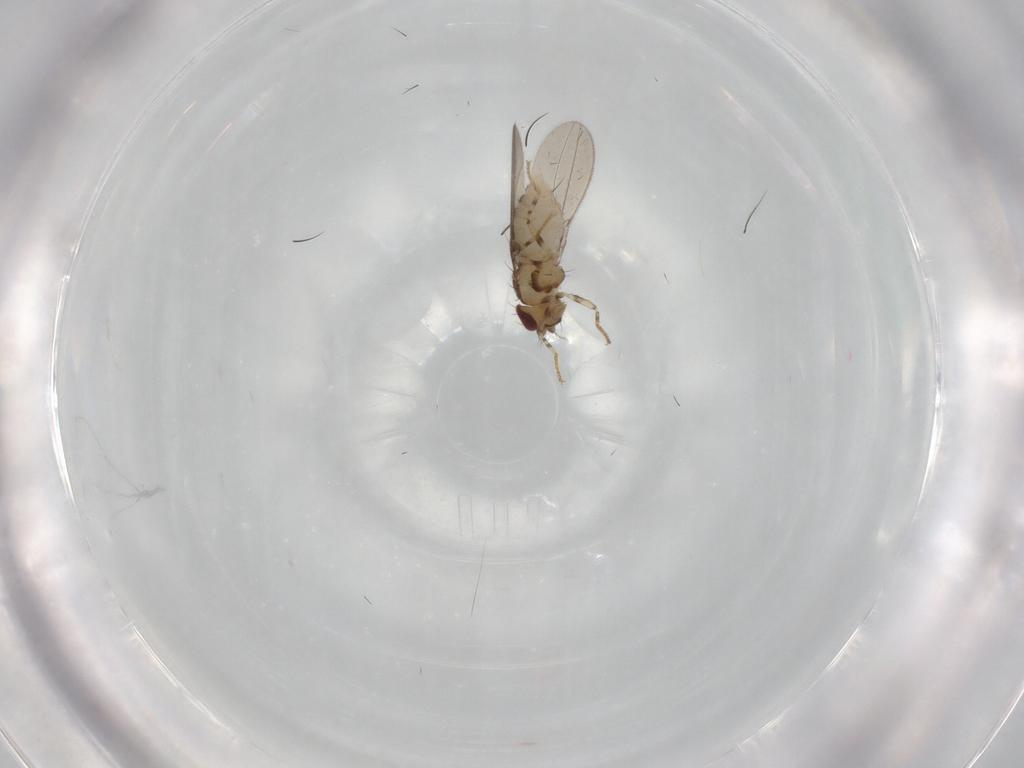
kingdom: Animalia
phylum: Arthropoda
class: Insecta
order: Diptera
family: Asteiidae
